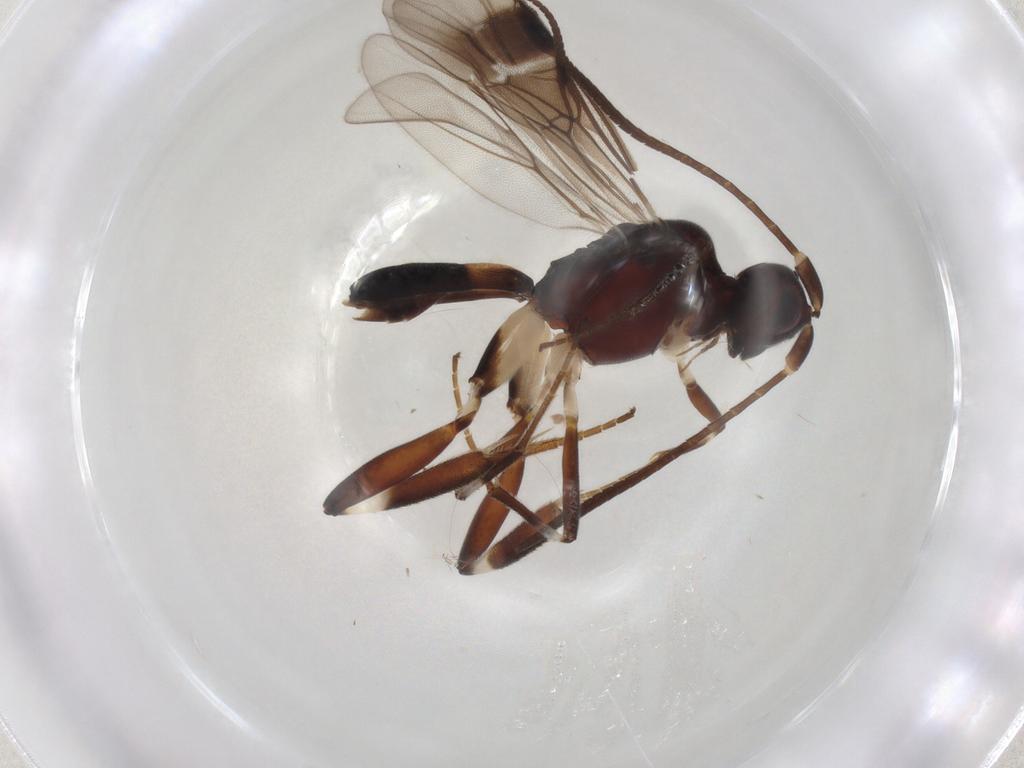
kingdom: Animalia
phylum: Arthropoda
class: Insecta
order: Hymenoptera
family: Braconidae
